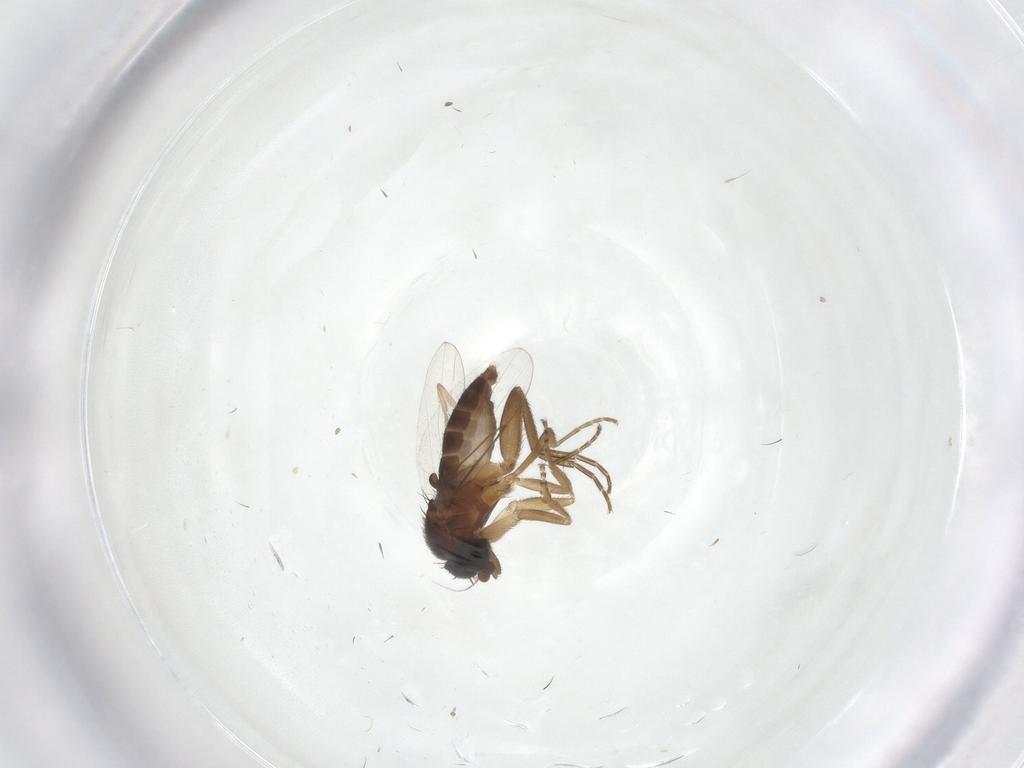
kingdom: Animalia
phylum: Arthropoda
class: Insecta
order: Diptera
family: Phoridae
